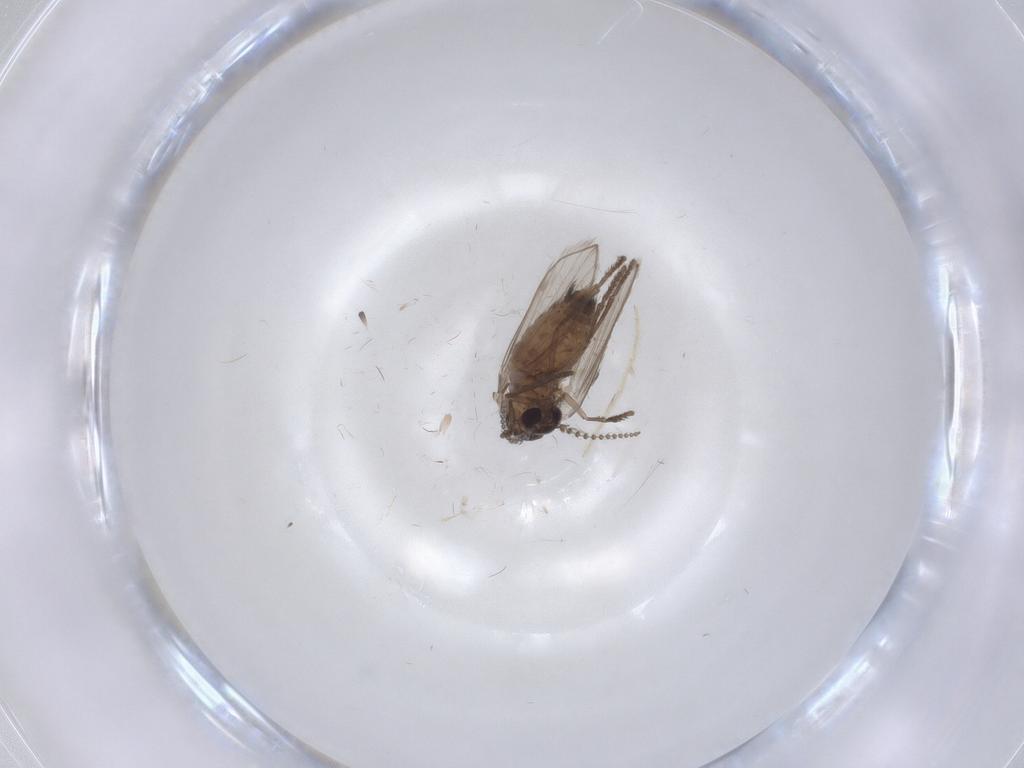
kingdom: Animalia
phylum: Arthropoda
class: Insecta
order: Diptera
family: Psychodidae
